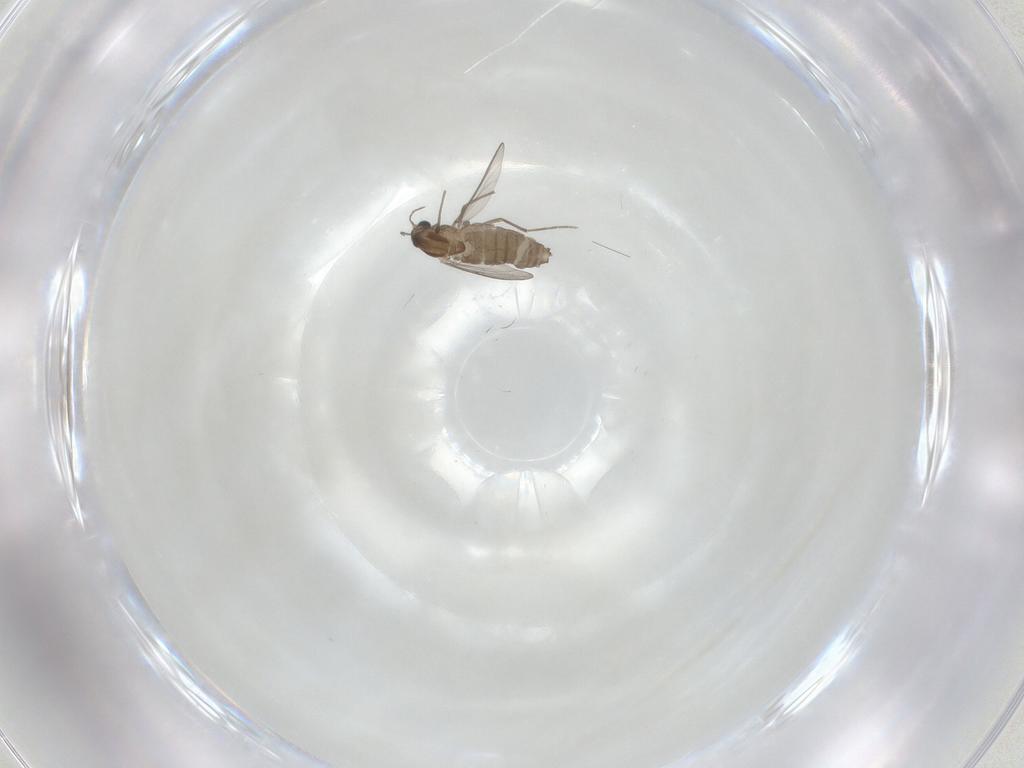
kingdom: Animalia
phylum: Arthropoda
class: Insecta
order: Diptera
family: Chironomidae
